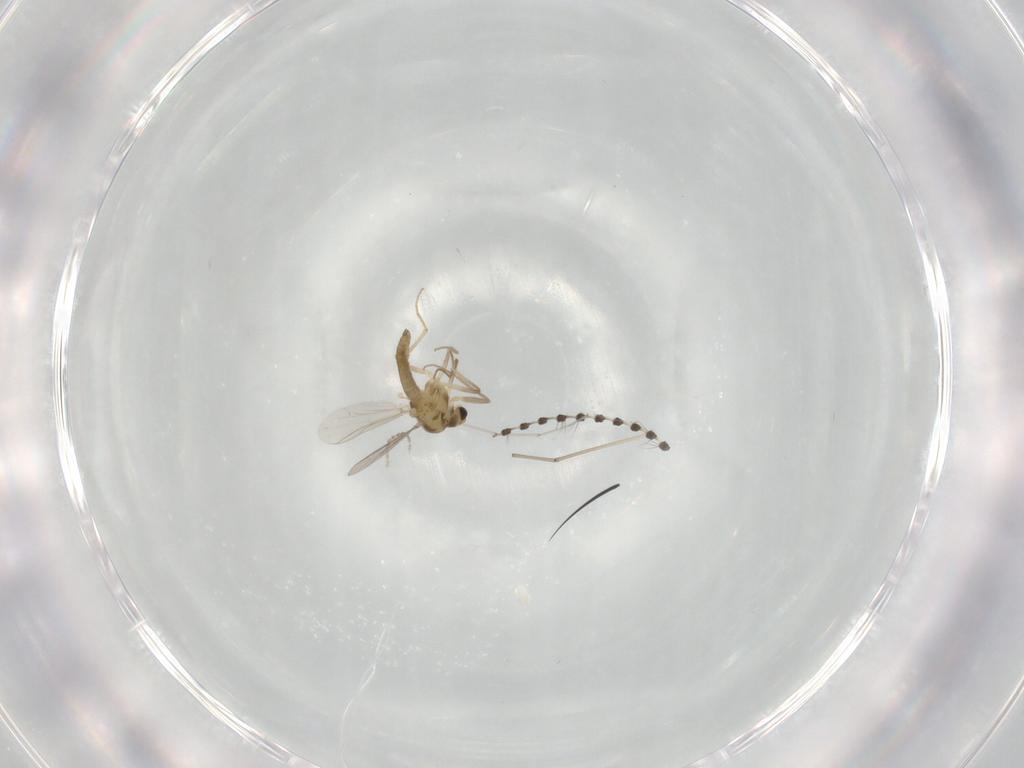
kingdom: Animalia
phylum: Arthropoda
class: Insecta
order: Diptera
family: Chironomidae
